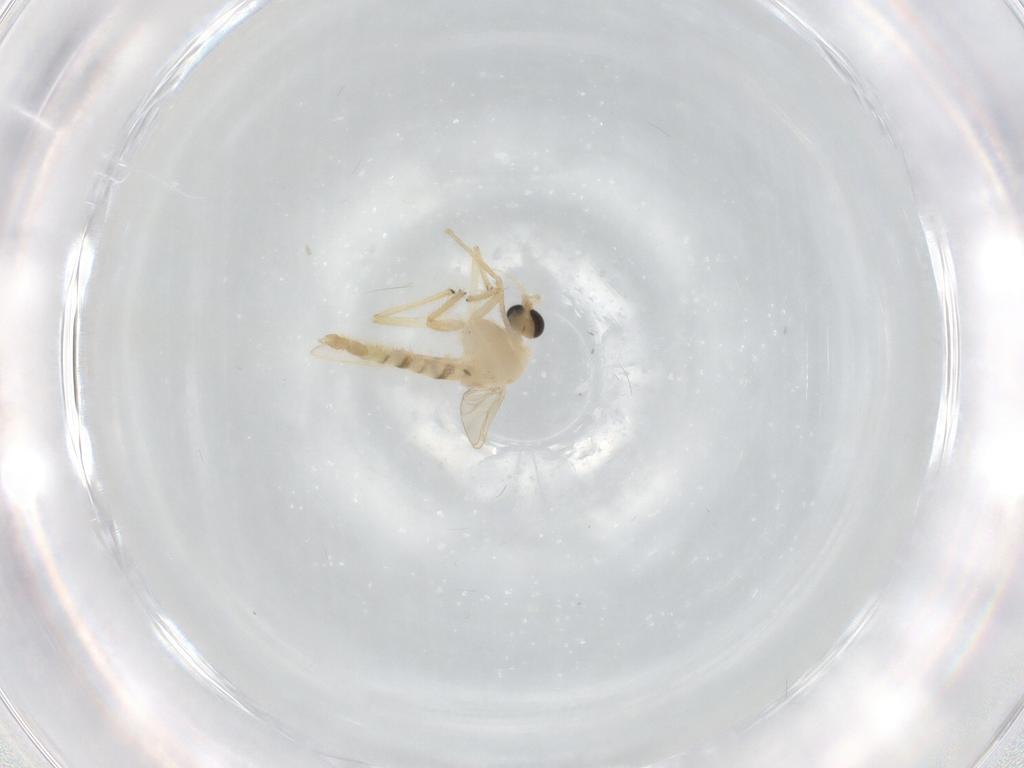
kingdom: Animalia
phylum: Arthropoda
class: Insecta
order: Diptera
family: Chironomidae
